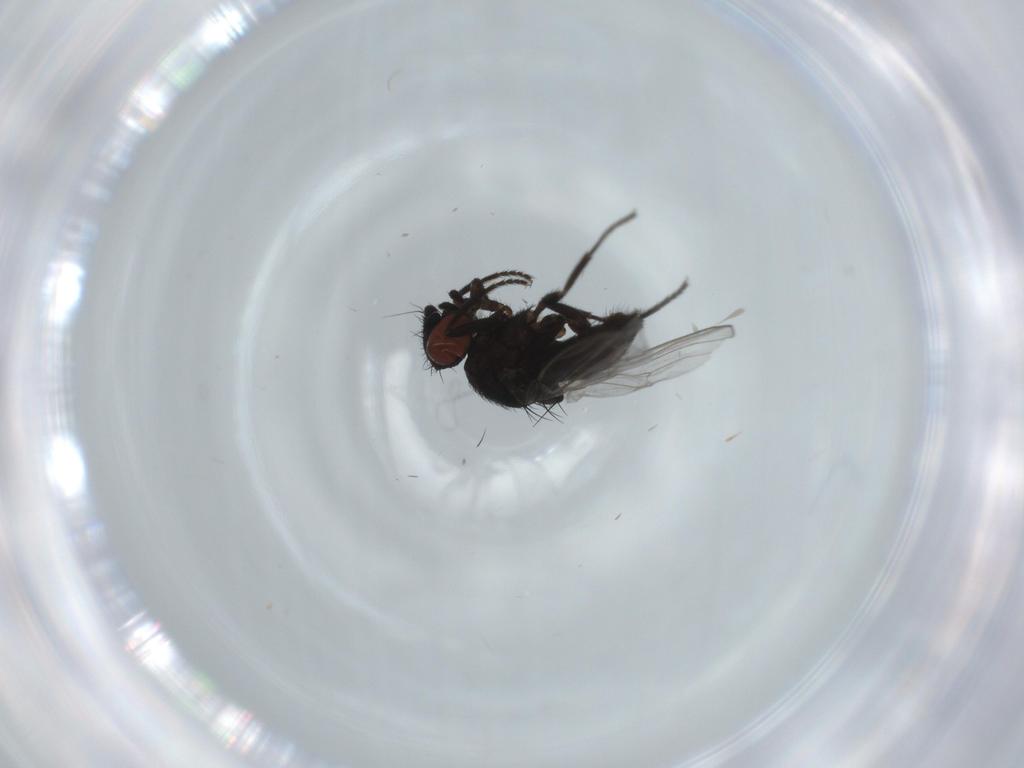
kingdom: Animalia
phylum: Arthropoda
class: Insecta
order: Diptera
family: Milichiidae
